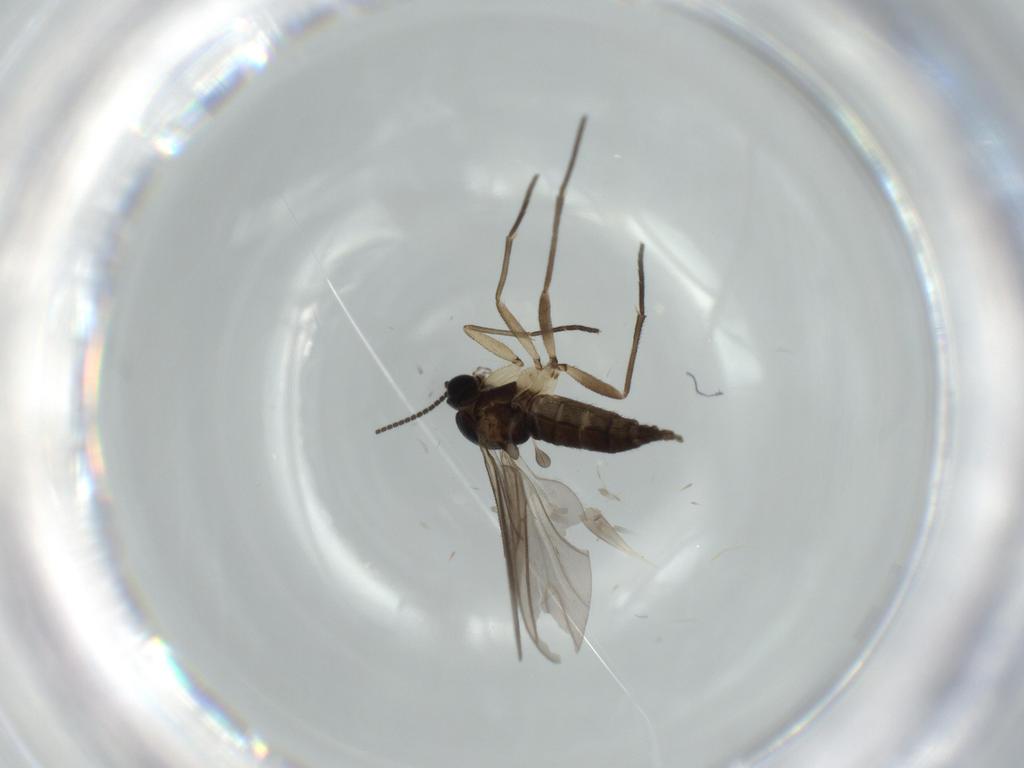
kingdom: Animalia
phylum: Arthropoda
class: Insecta
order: Diptera
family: Sciaridae
